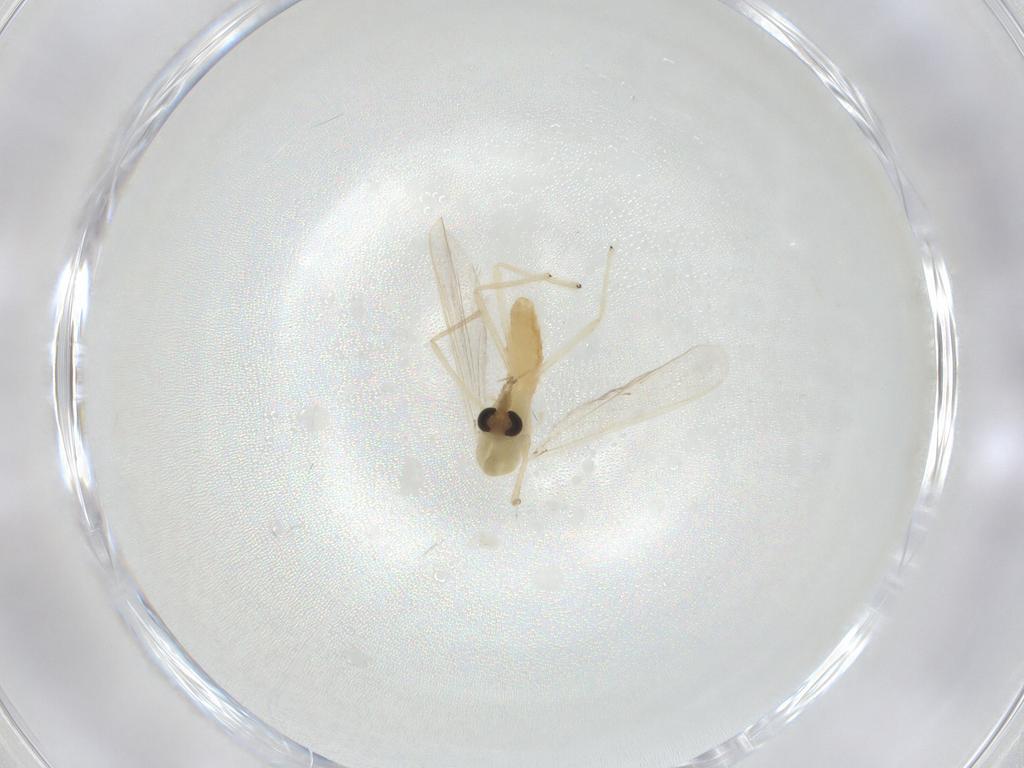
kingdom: Animalia
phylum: Arthropoda
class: Insecta
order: Diptera
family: Chironomidae
